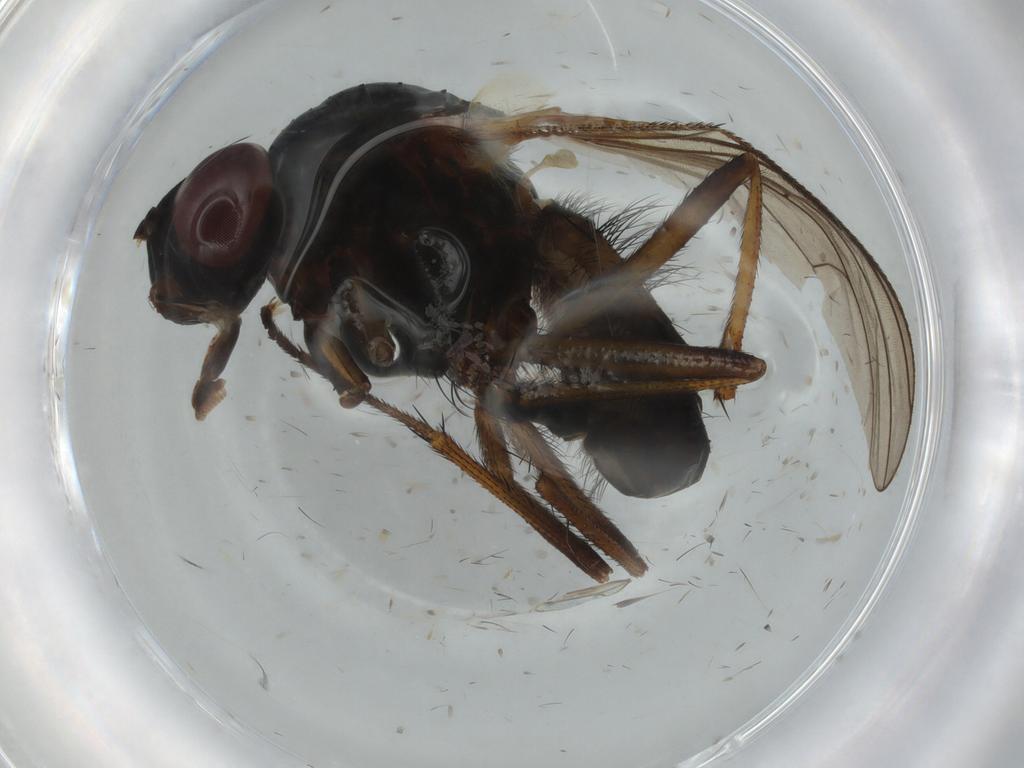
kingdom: Animalia
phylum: Arthropoda
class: Insecta
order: Diptera
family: Anthomyiidae
